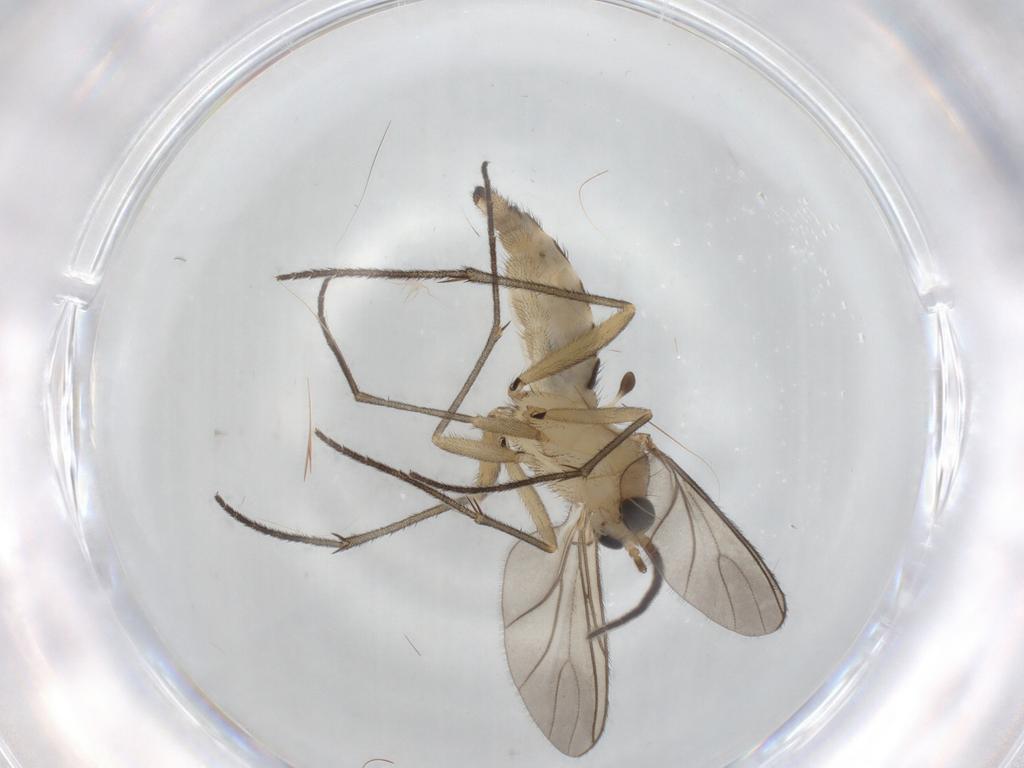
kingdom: Animalia
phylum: Arthropoda
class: Insecta
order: Diptera
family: Sciaridae
